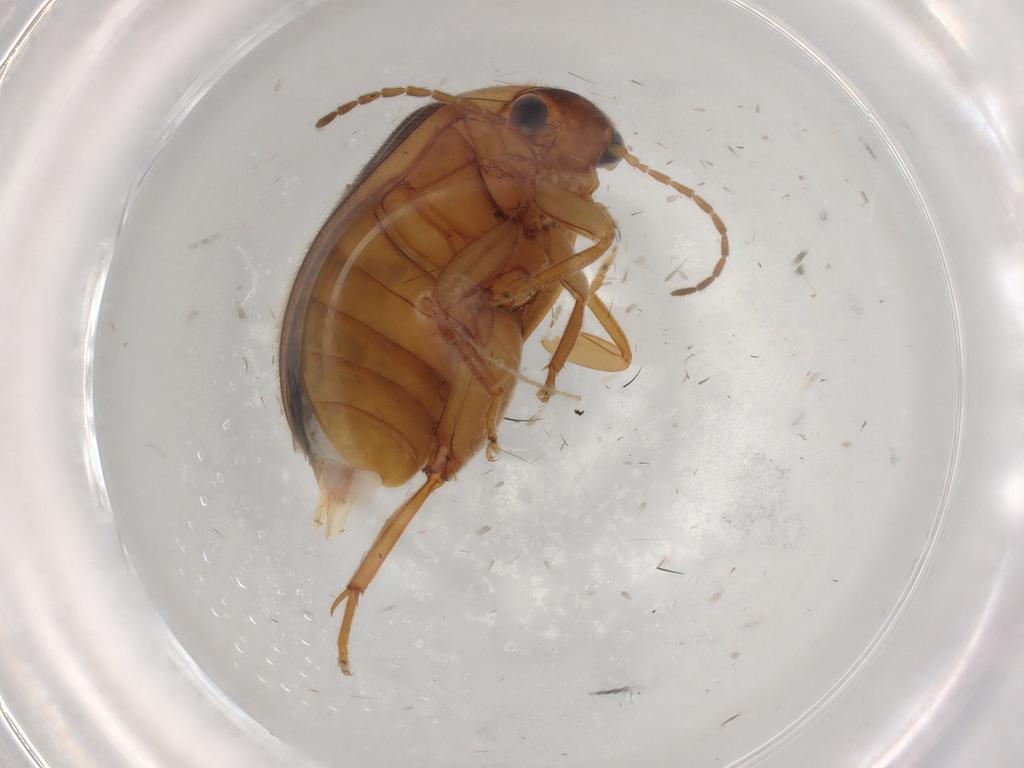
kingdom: Animalia
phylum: Arthropoda
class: Insecta
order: Coleoptera
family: Scirtidae
